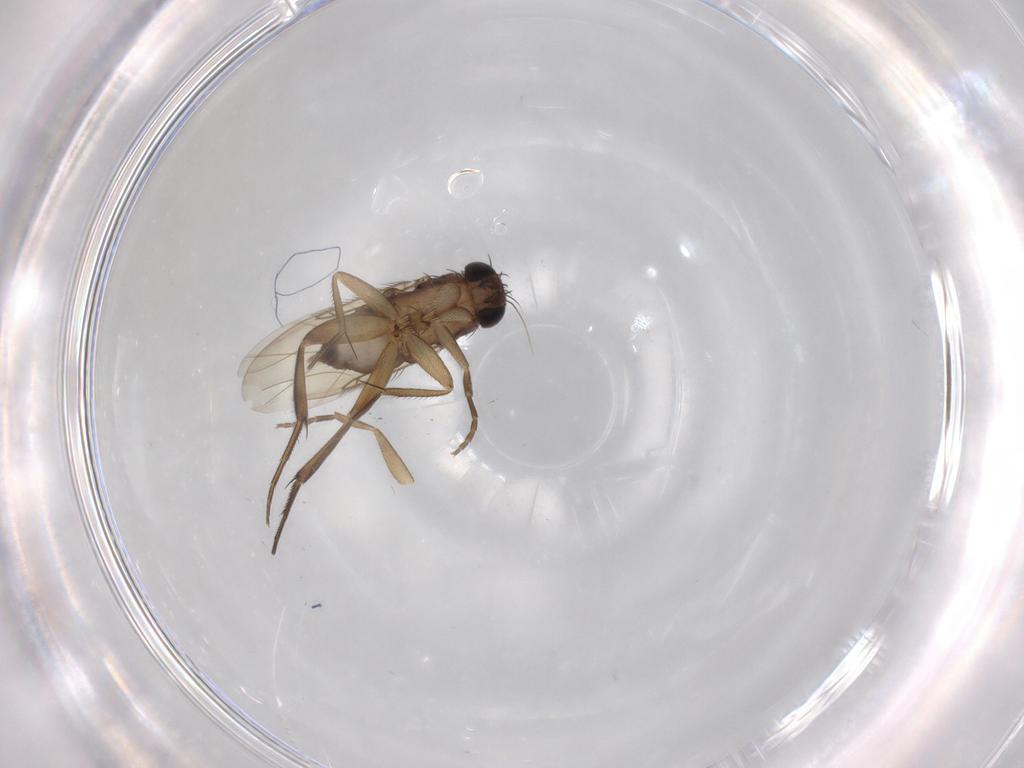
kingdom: Animalia
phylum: Arthropoda
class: Insecta
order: Diptera
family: Phoridae
